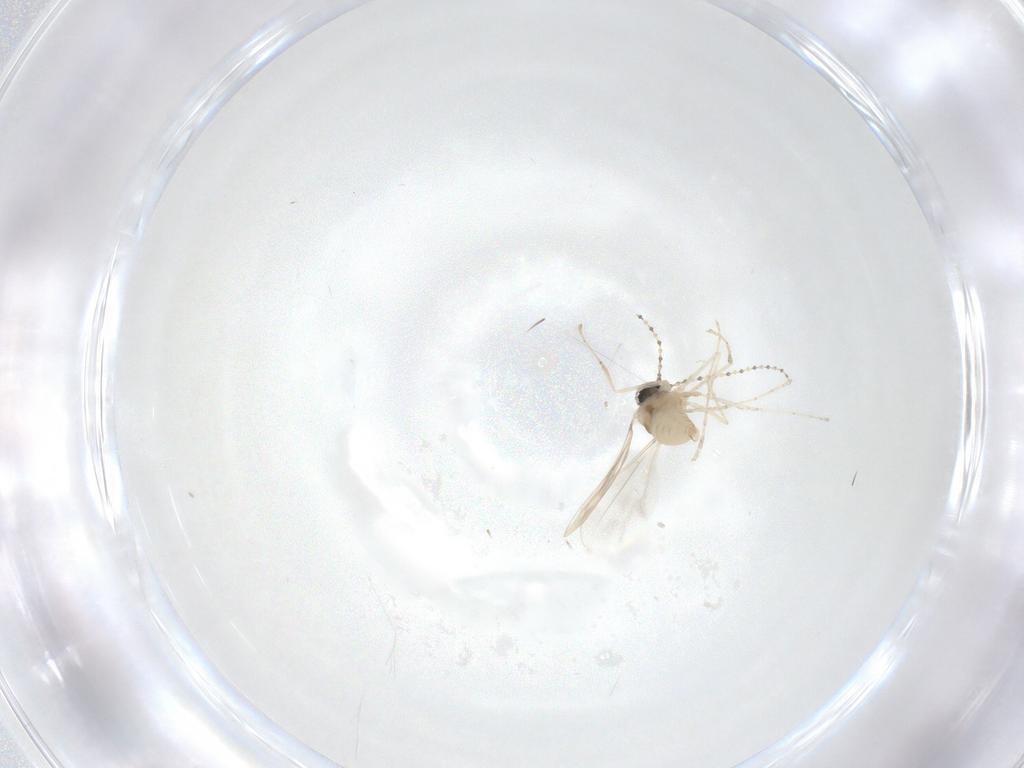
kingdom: Animalia
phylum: Arthropoda
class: Insecta
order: Diptera
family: Cecidomyiidae
